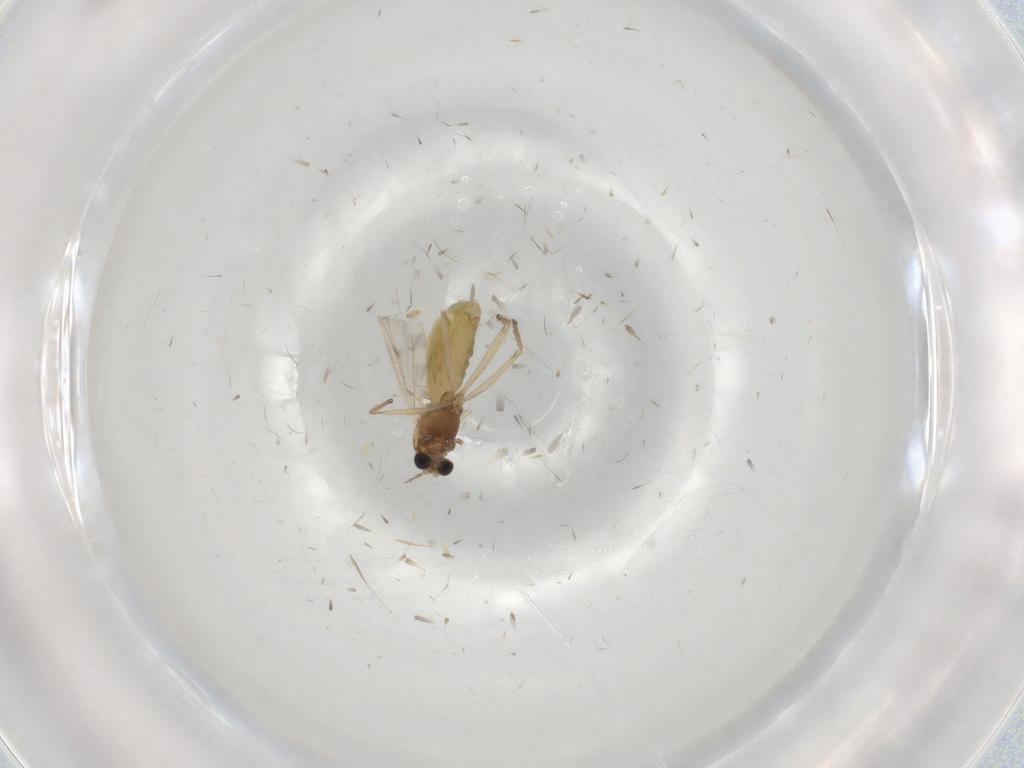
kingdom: Animalia
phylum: Arthropoda
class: Insecta
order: Diptera
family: Chironomidae
